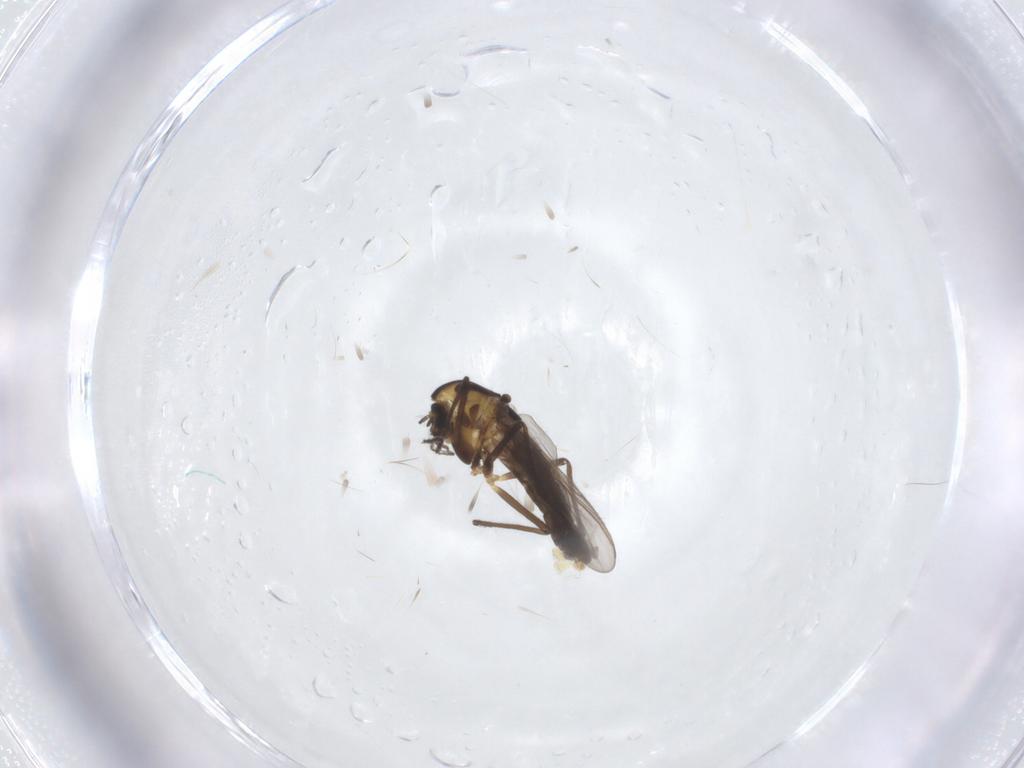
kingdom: Animalia
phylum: Arthropoda
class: Insecta
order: Diptera
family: Chironomidae
